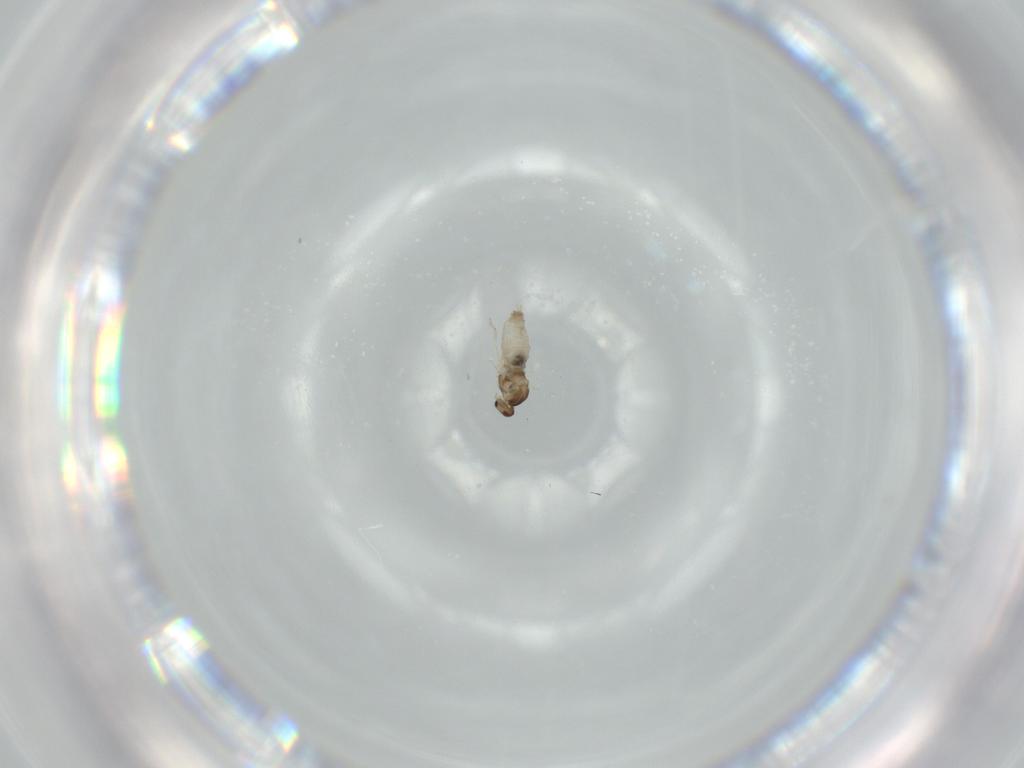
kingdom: Animalia
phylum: Arthropoda
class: Insecta
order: Diptera
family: Cecidomyiidae
